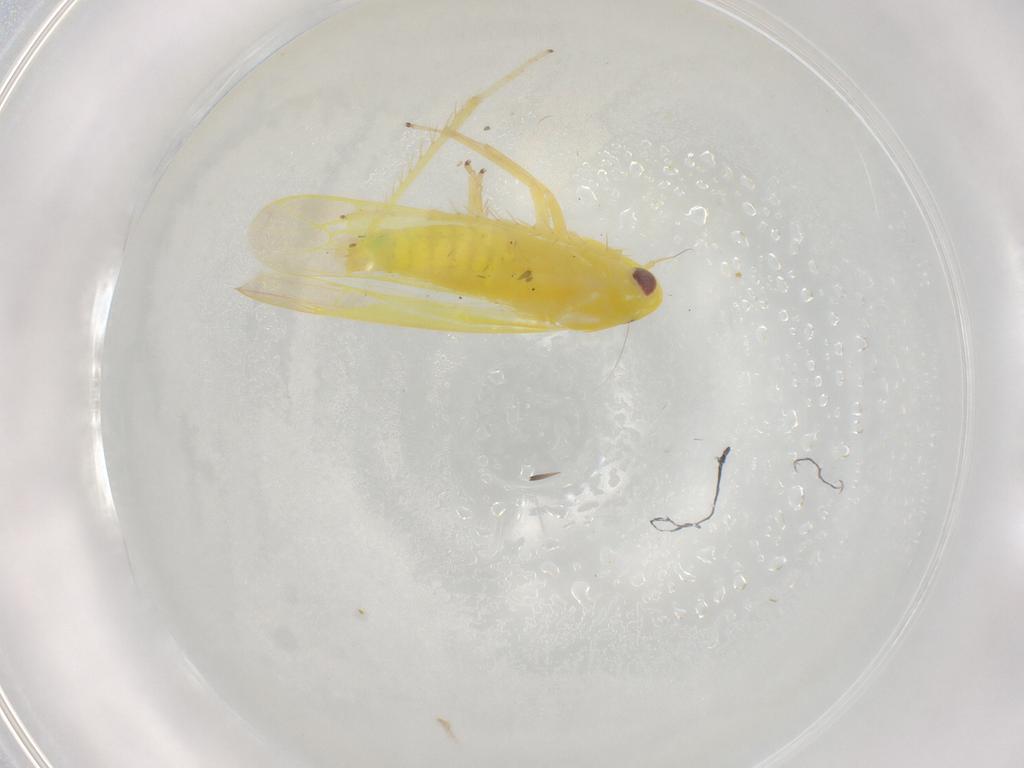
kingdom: Animalia
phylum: Arthropoda
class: Insecta
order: Hemiptera
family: Cicadellidae
